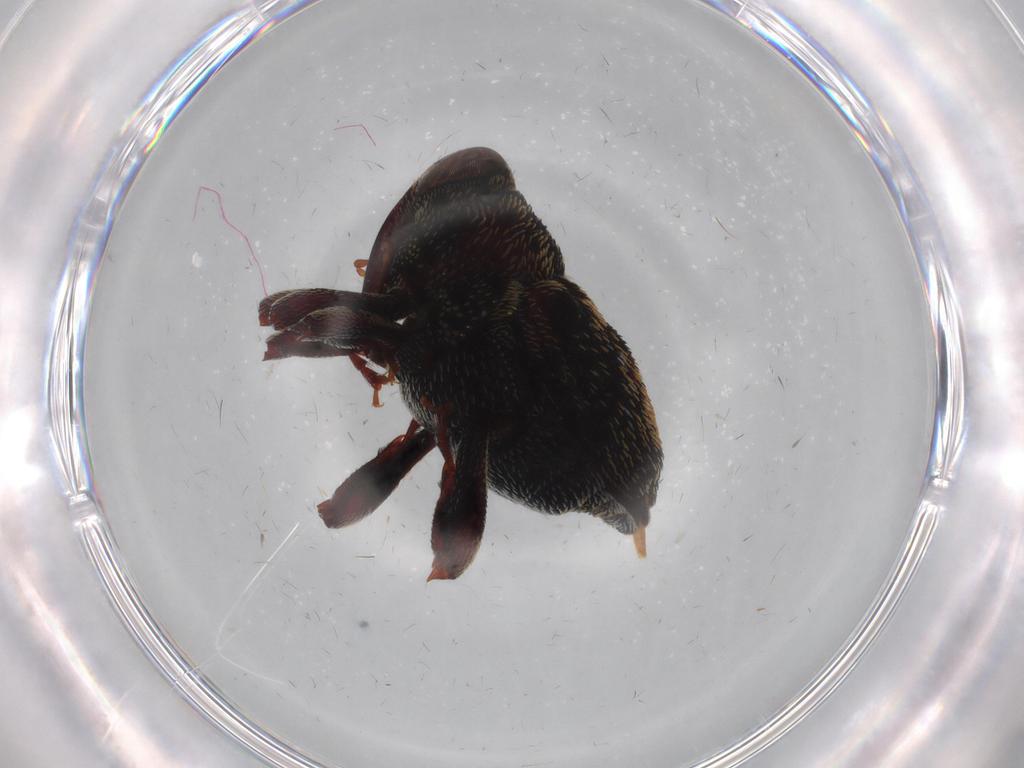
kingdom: Animalia
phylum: Arthropoda
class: Insecta
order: Coleoptera
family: Curculionidae
